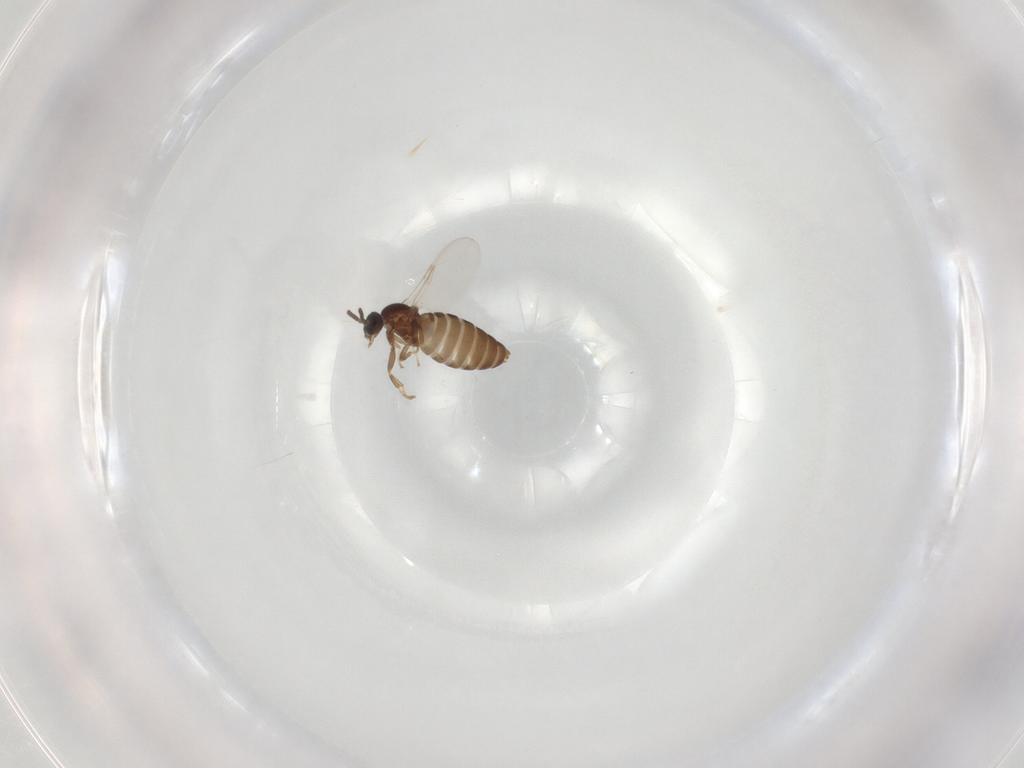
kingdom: Animalia
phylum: Arthropoda
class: Insecta
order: Diptera
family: Scatopsidae
